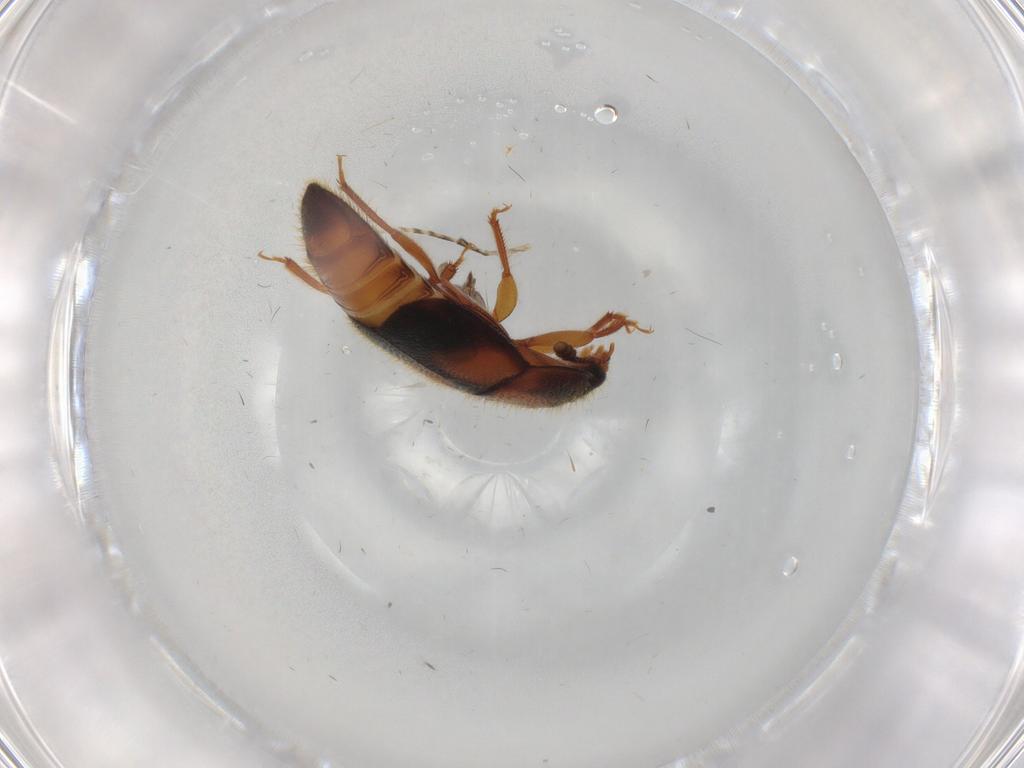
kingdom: Animalia
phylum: Arthropoda
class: Insecta
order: Coleoptera
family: Nitidulidae
